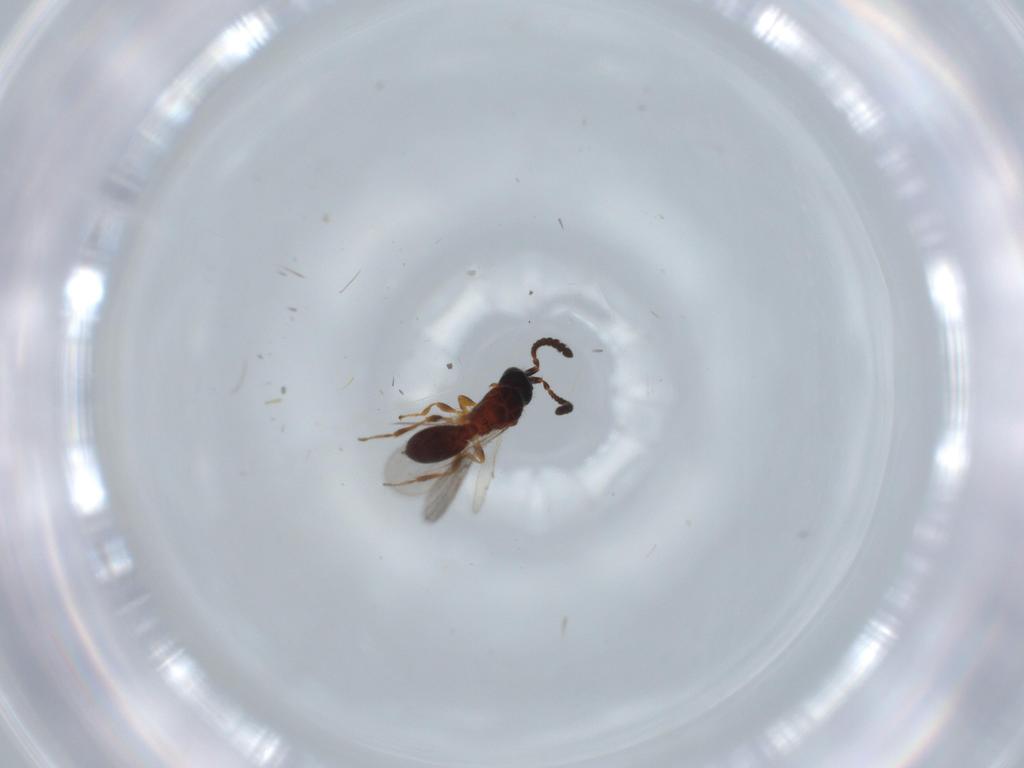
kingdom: Animalia
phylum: Arthropoda
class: Insecta
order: Hymenoptera
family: Diapriidae
